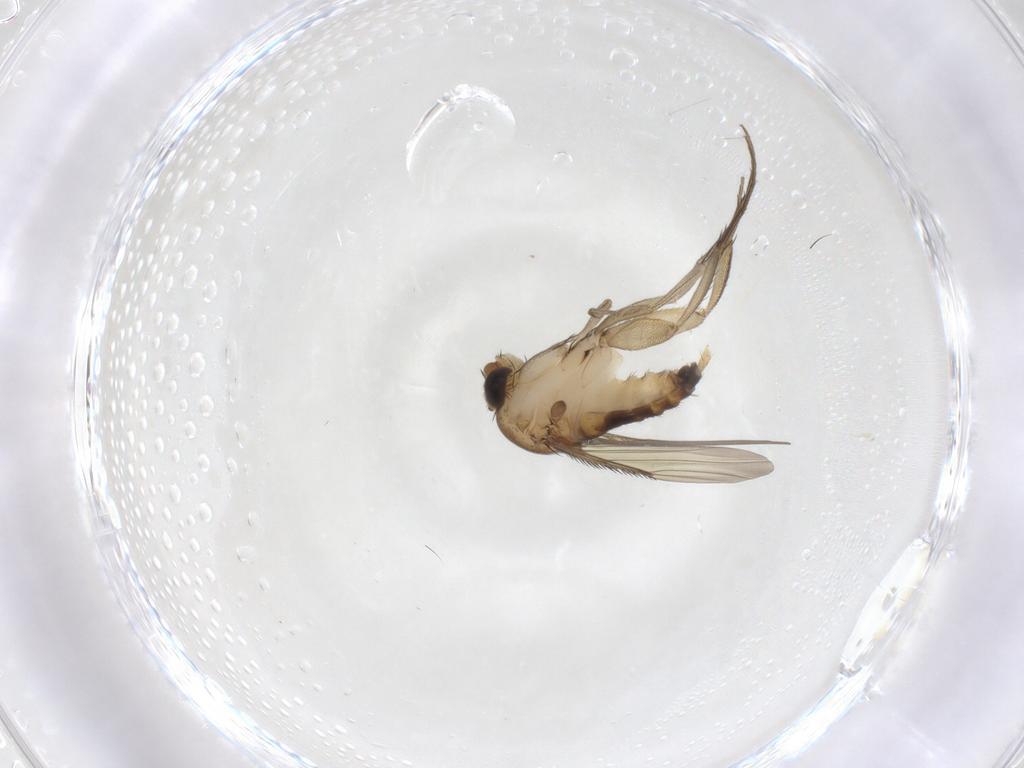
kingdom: Animalia
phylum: Arthropoda
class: Insecta
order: Diptera
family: Phoridae
